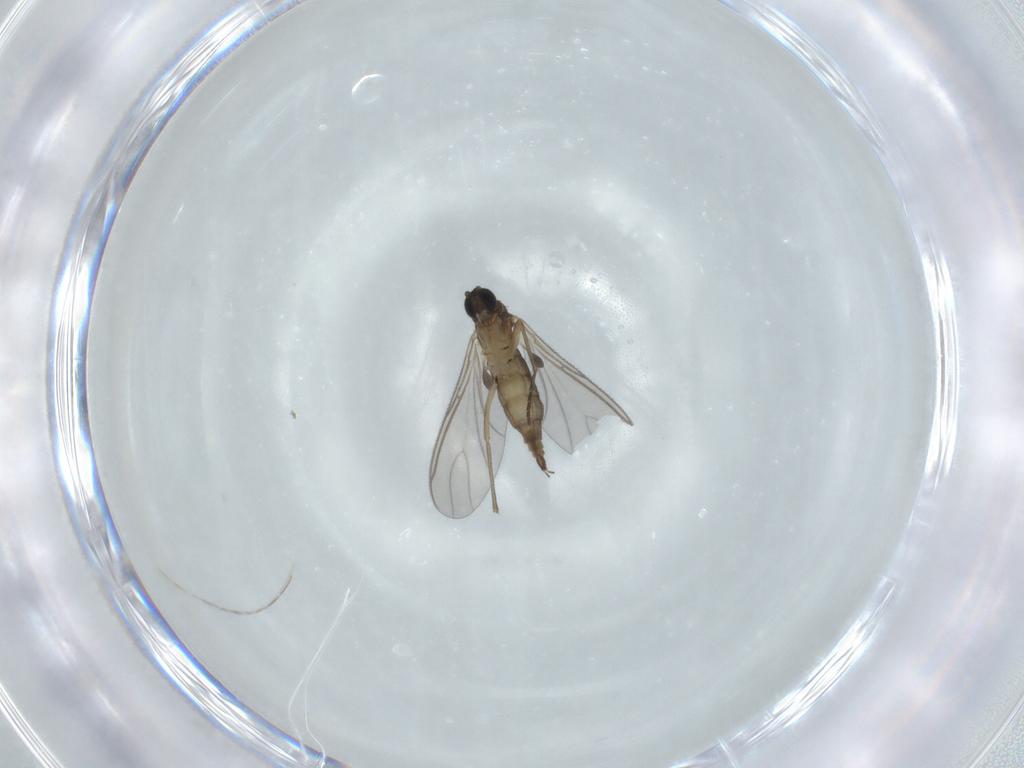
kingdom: Animalia
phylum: Arthropoda
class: Insecta
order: Diptera
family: Sciaridae
